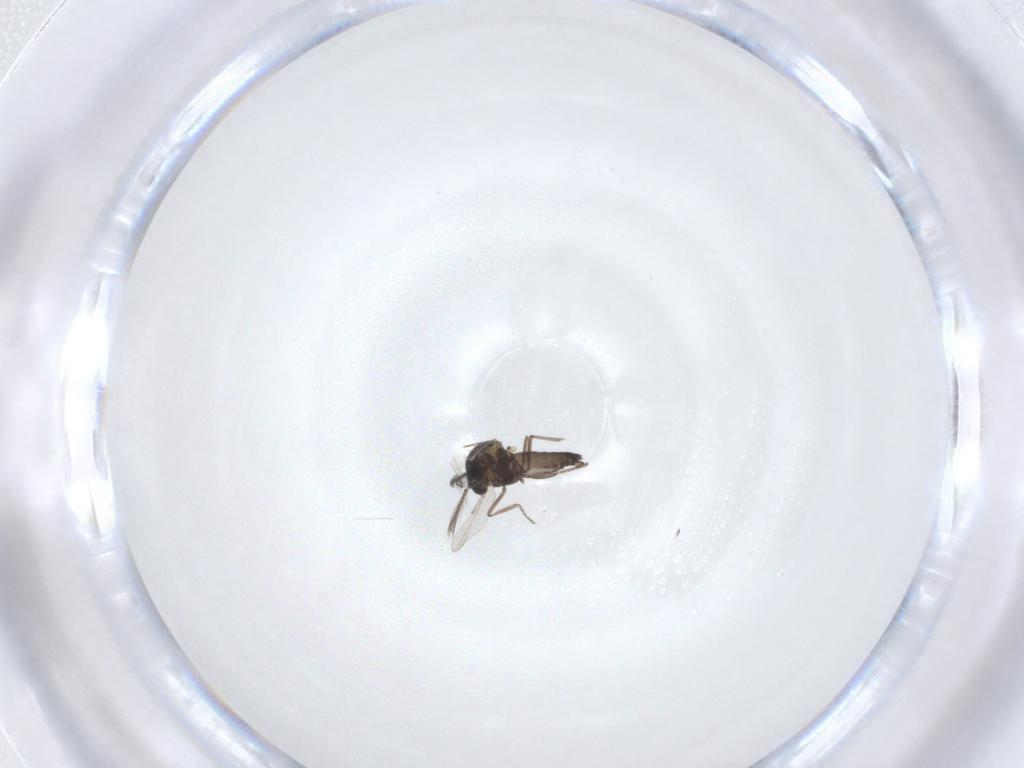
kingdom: Animalia
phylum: Arthropoda
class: Insecta
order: Diptera
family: Ceratopogonidae
